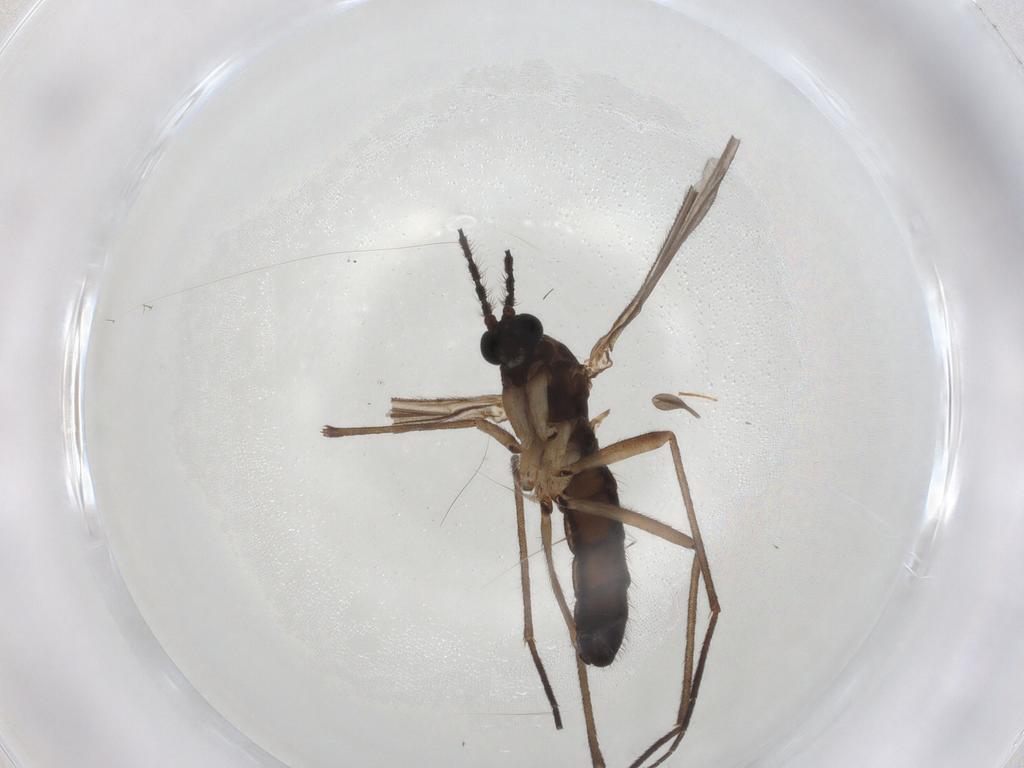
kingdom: Animalia
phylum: Arthropoda
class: Insecta
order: Diptera
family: Sciaridae
